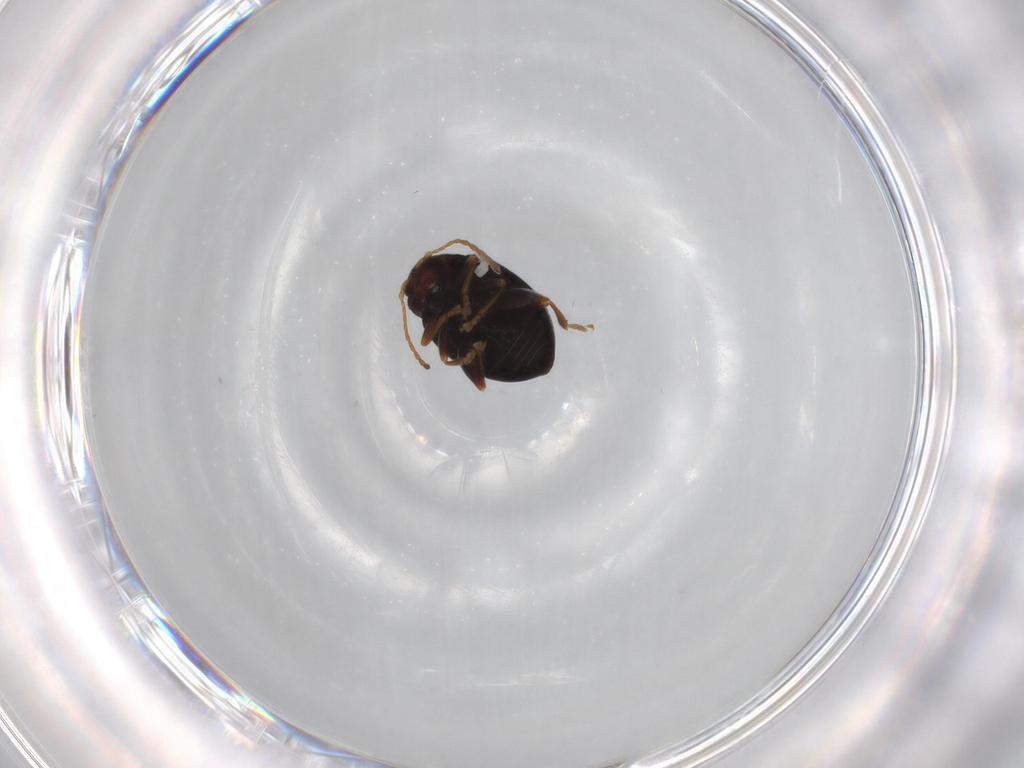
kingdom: Animalia
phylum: Arthropoda
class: Insecta
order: Coleoptera
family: Chrysomelidae
